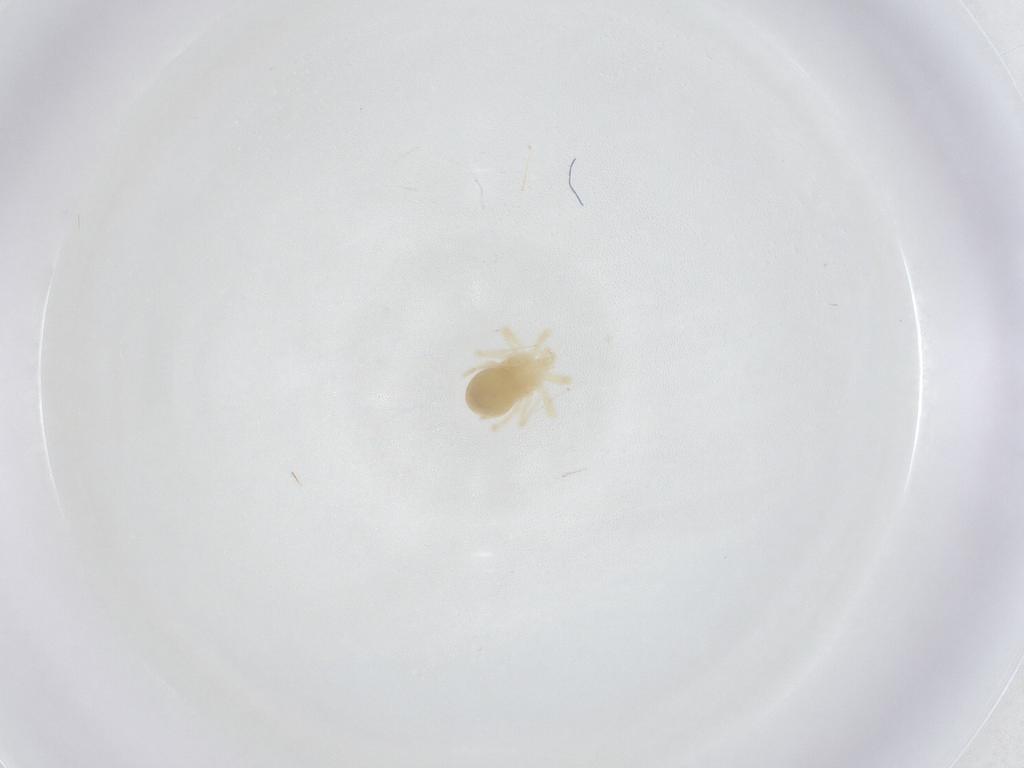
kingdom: Animalia
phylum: Arthropoda
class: Arachnida
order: Trombidiformes
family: Anystidae
